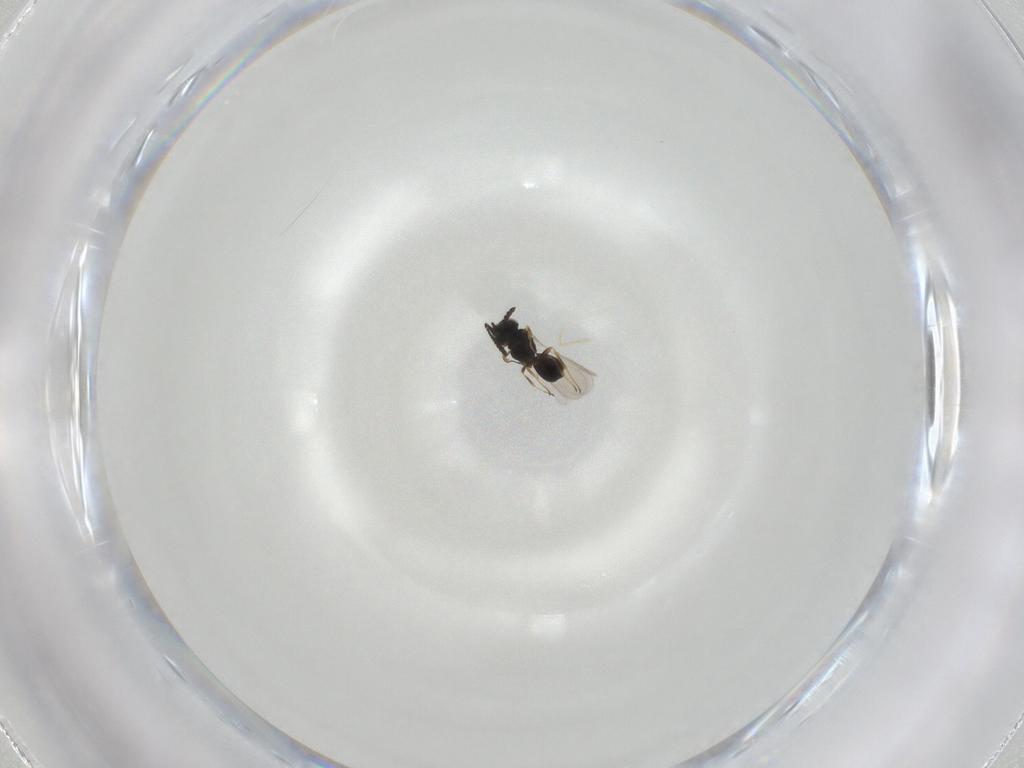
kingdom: Animalia
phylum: Arthropoda
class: Insecta
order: Hymenoptera
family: Scelionidae
